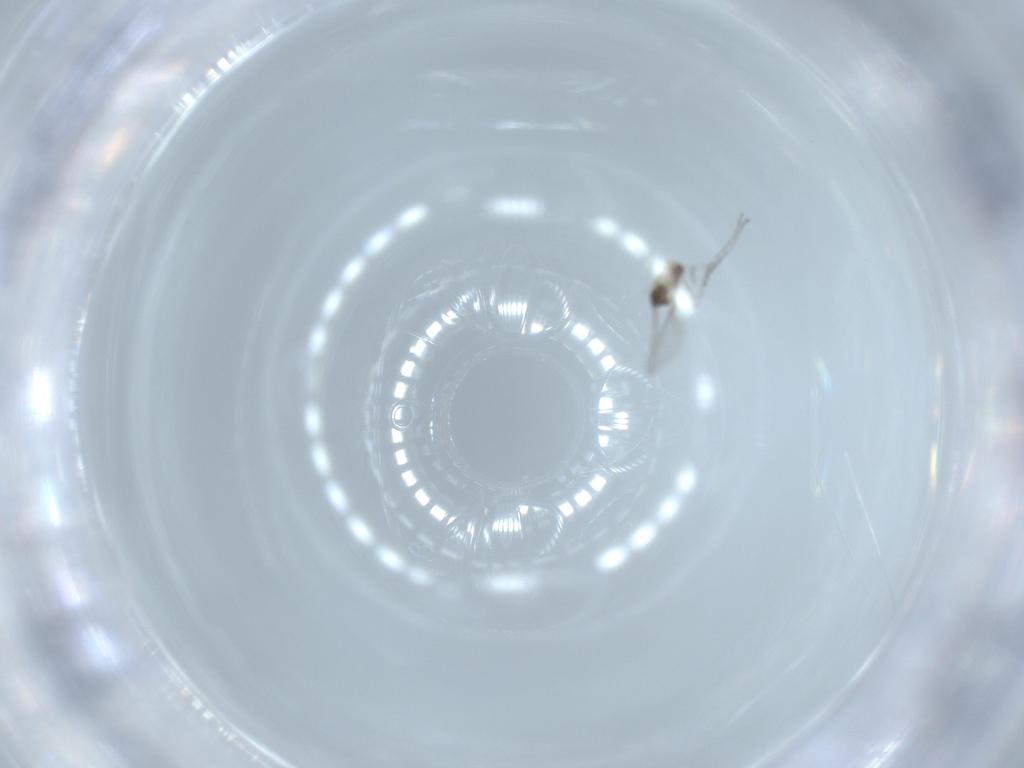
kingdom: Animalia
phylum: Arthropoda
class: Insecta
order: Diptera
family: Cecidomyiidae
